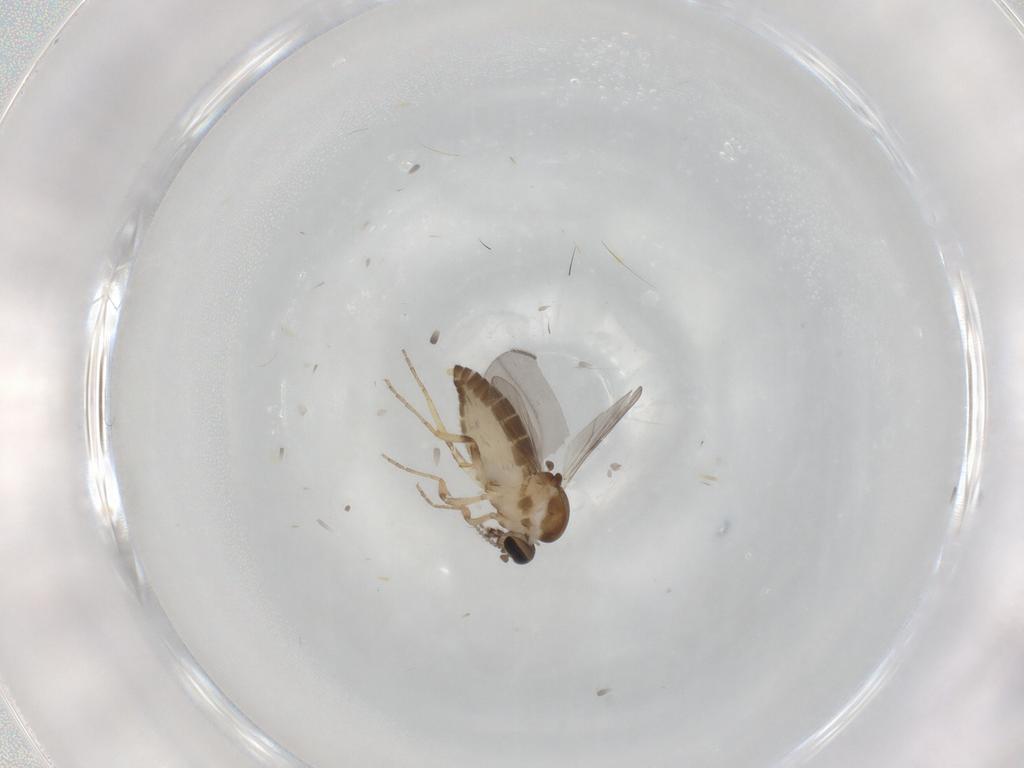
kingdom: Animalia
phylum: Arthropoda
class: Insecta
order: Diptera
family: Ceratopogonidae
